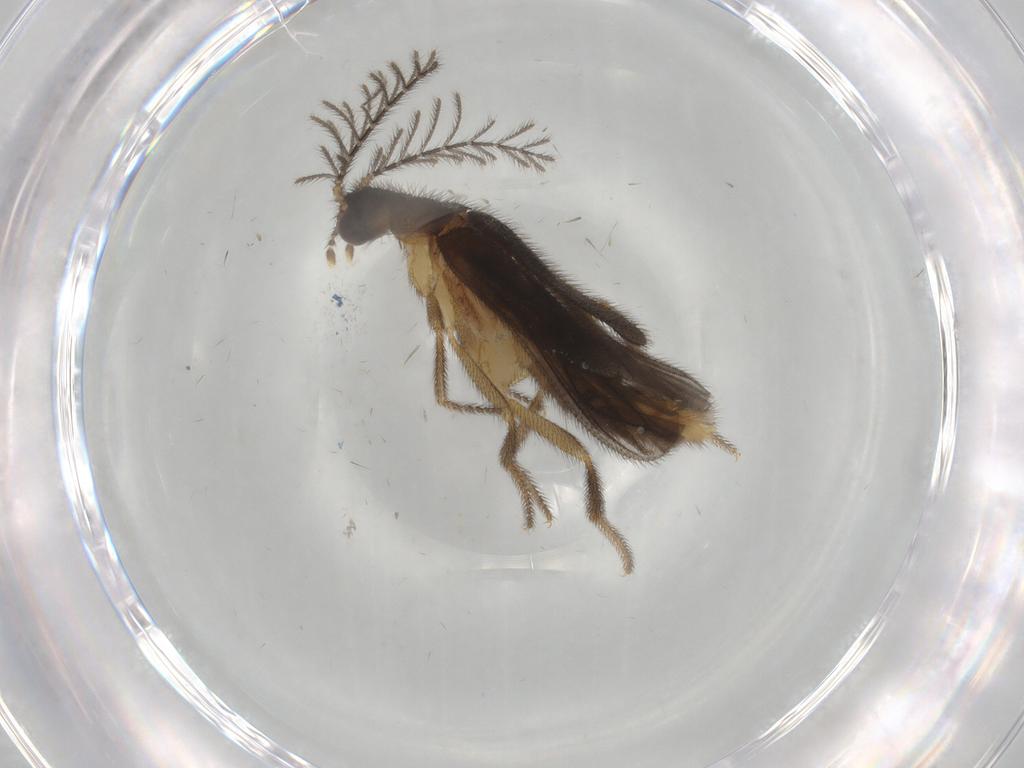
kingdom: Animalia
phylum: Arthropoda
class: Insecta
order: Coleoptera
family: Phengodidae
